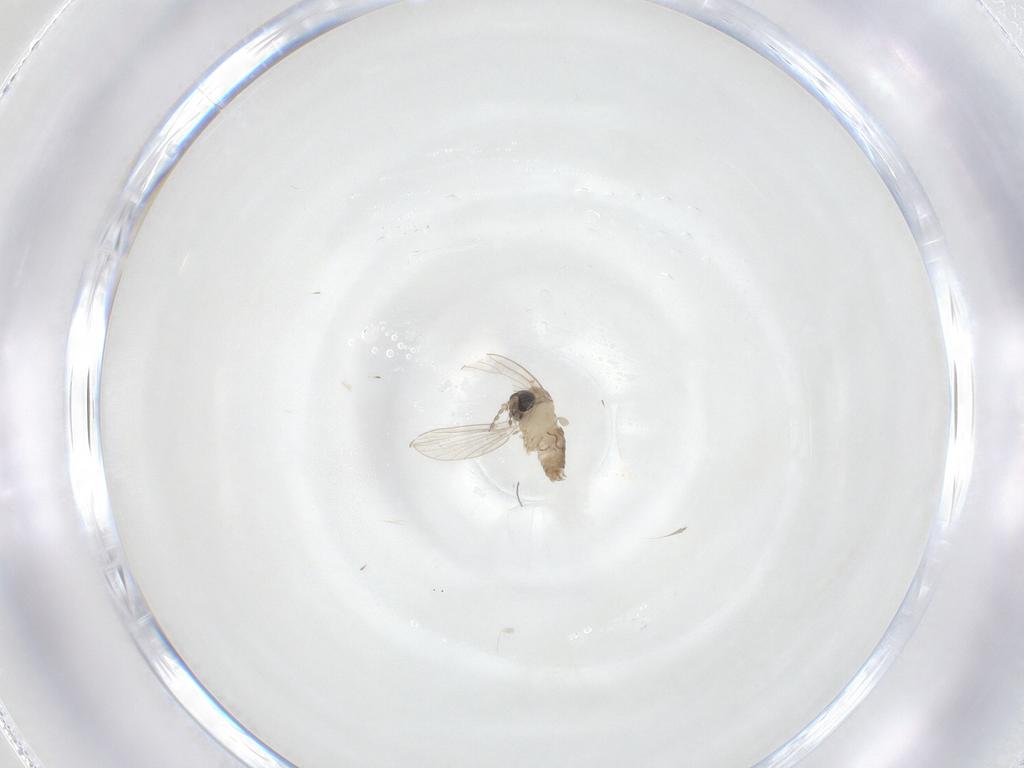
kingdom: Animalia
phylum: Arthropoda
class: Insecta
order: Diptera
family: Psychodidae
